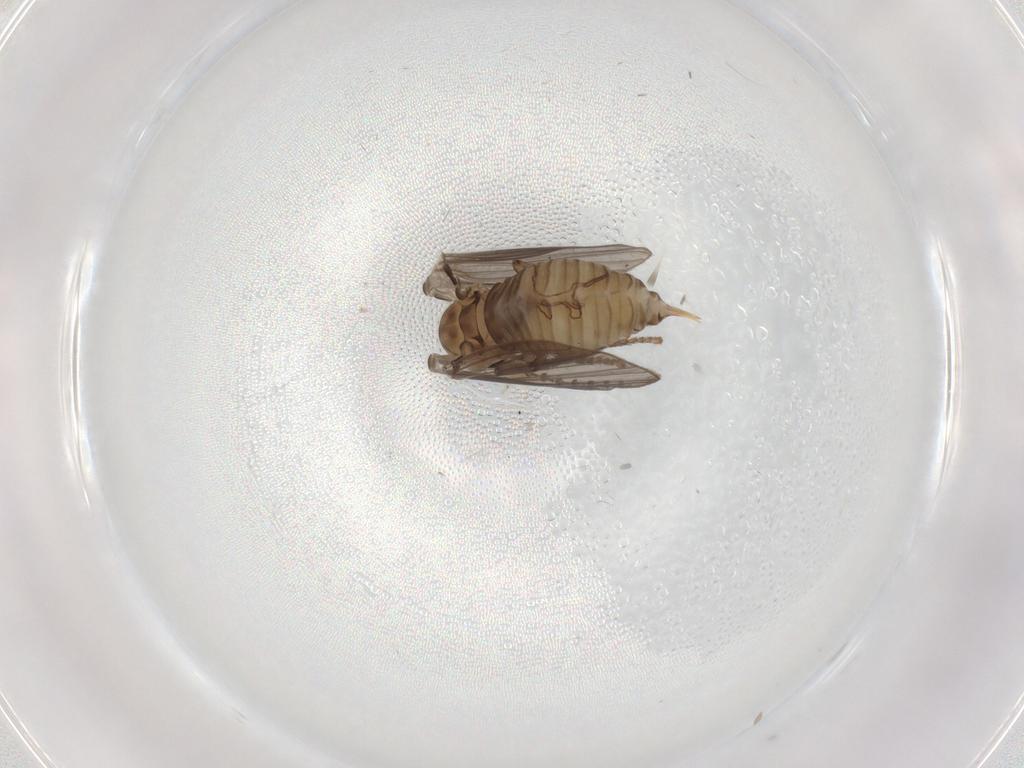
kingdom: Animalia
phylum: Arthropoda
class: Insecta
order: Diptera
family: Psychodidae
